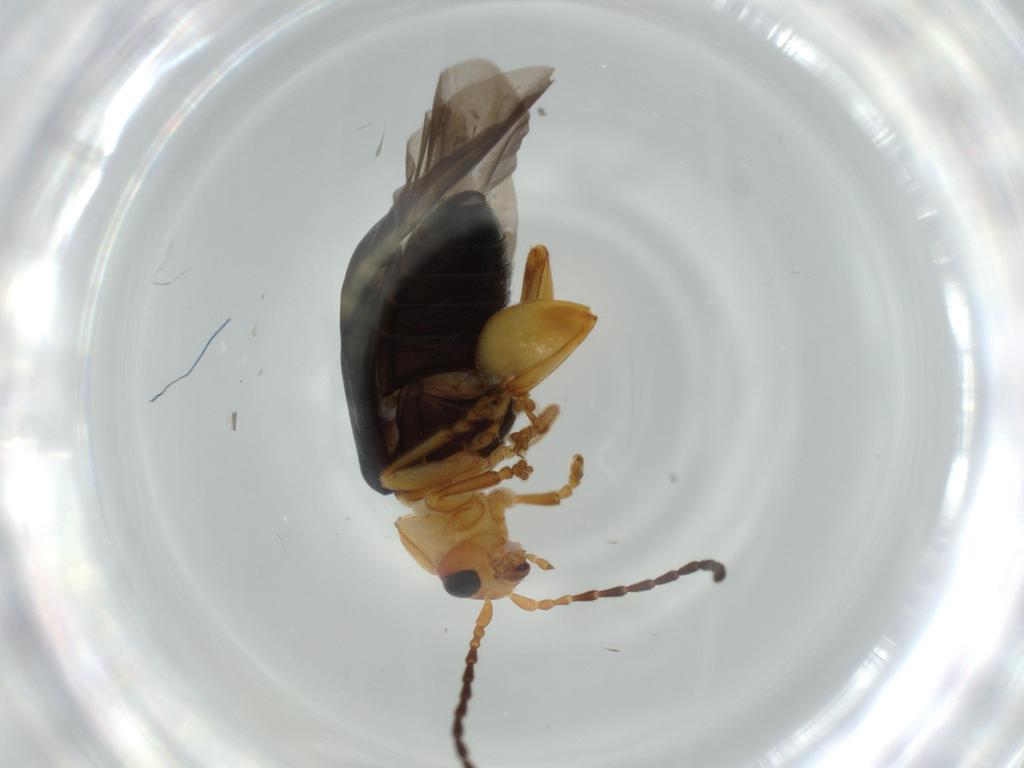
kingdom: Animalia
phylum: Arthropoda
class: Insecta
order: Coleoptera
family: Chrysomelidae
